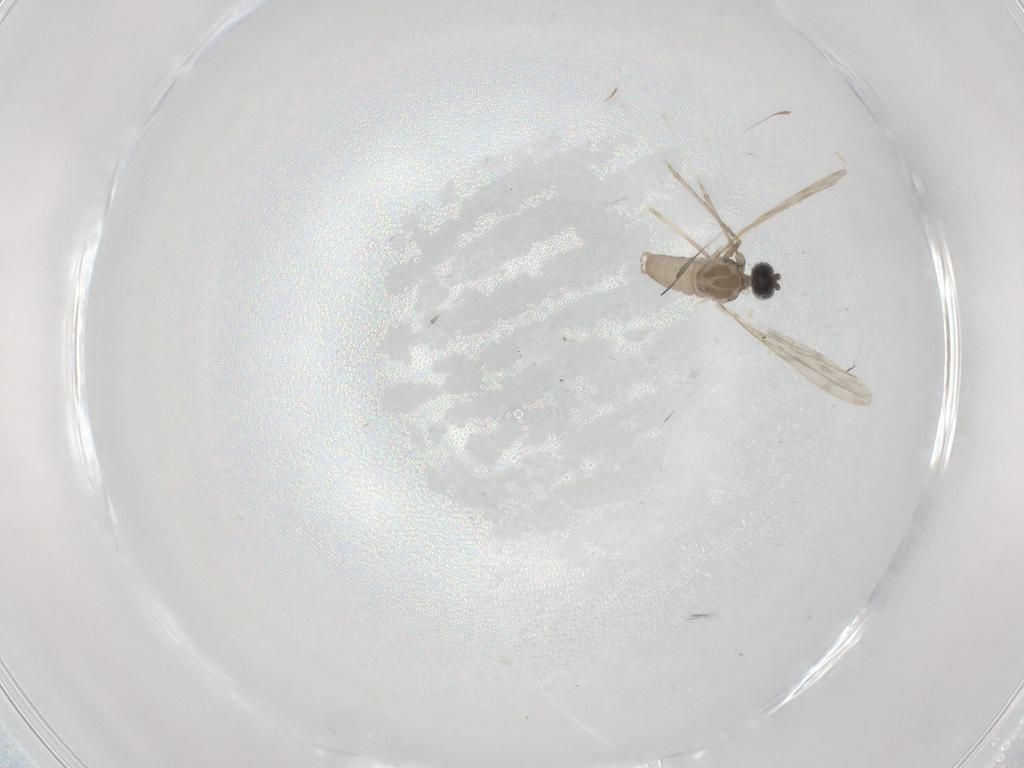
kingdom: Animalia
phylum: Arthropoda
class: Insecta
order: Diptera
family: Cecidomyiidae
